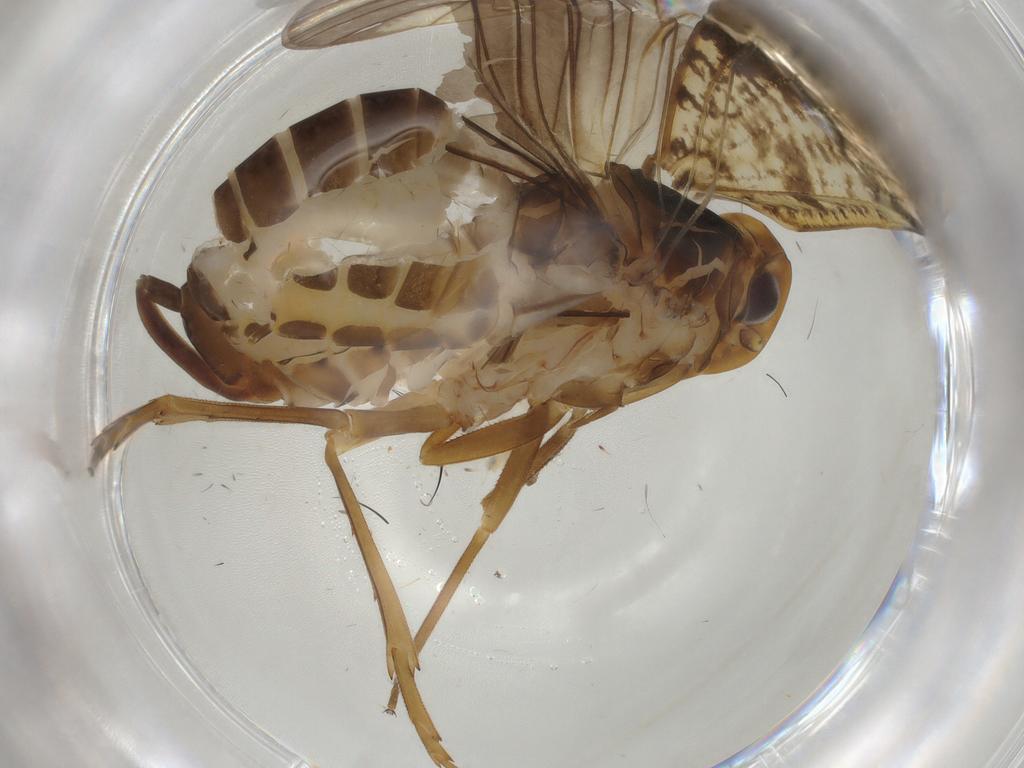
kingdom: Animalia
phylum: Arthropoda
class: Insecta
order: Lepidoptera
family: Tineidae
